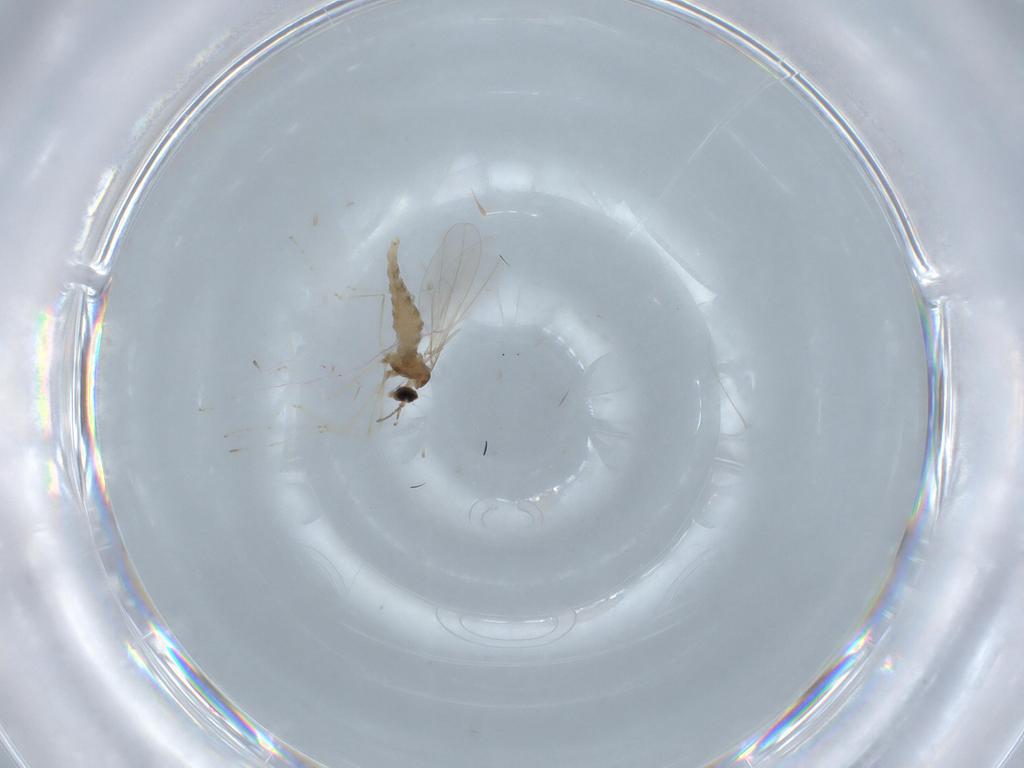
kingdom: Animalia
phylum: Arthropoda
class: Insecta
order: Diptera
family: Cecidomyiidae
